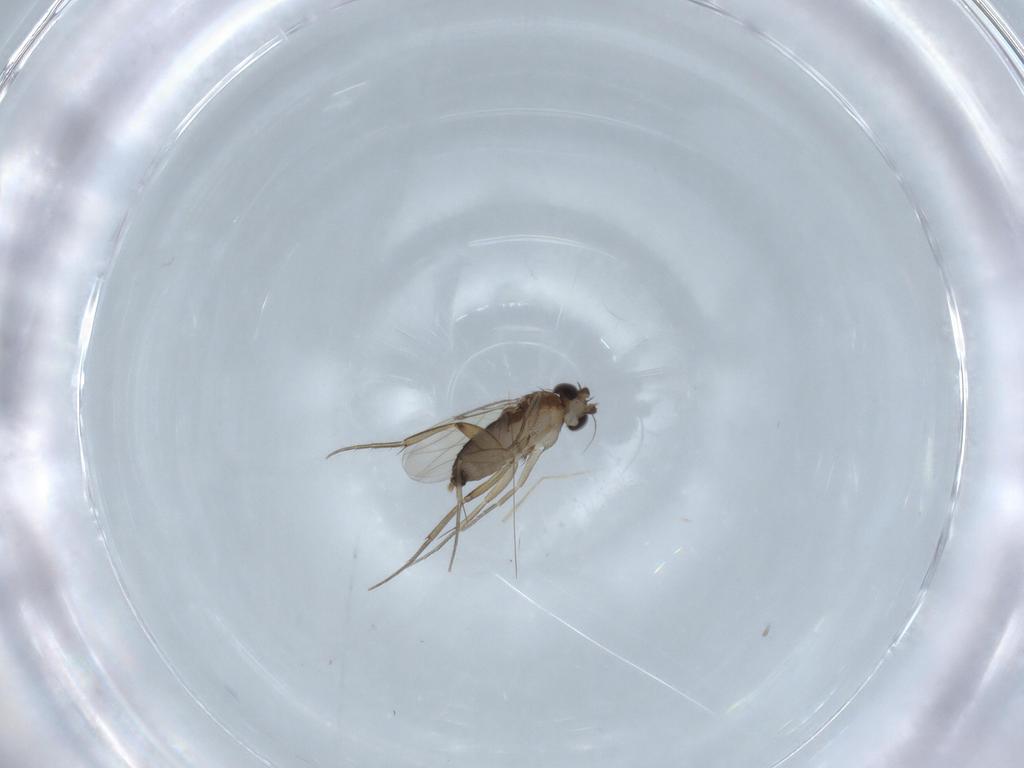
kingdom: Animalia
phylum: Arthropoda
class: Insecta
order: Diptera
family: Phoridae
